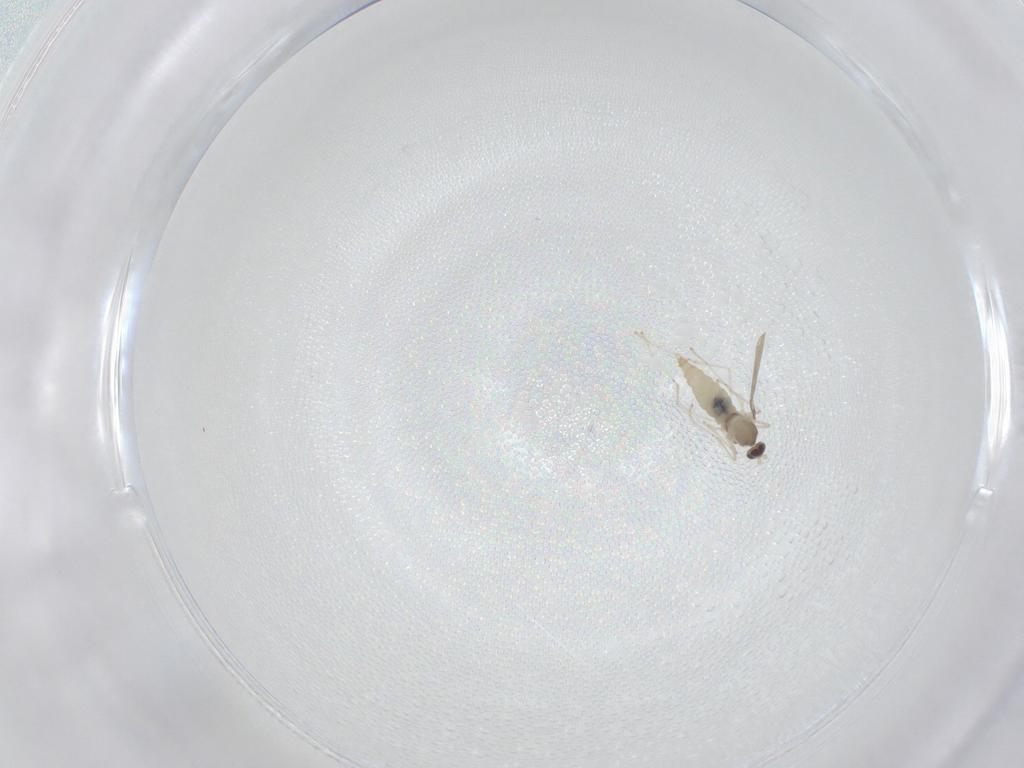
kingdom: Animalia
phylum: Arthropoda
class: Insecta
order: Diptera
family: Cecidomyiidae
